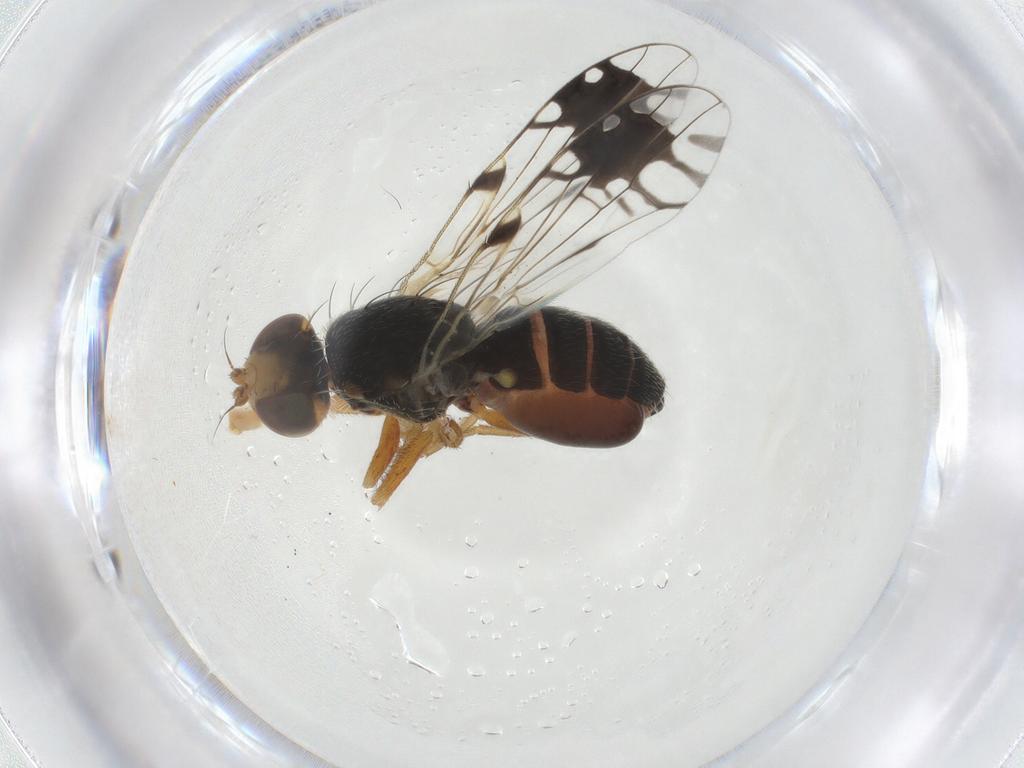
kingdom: Animalia
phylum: Arthropoda
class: Insecta
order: Diptera
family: Tephritidae
